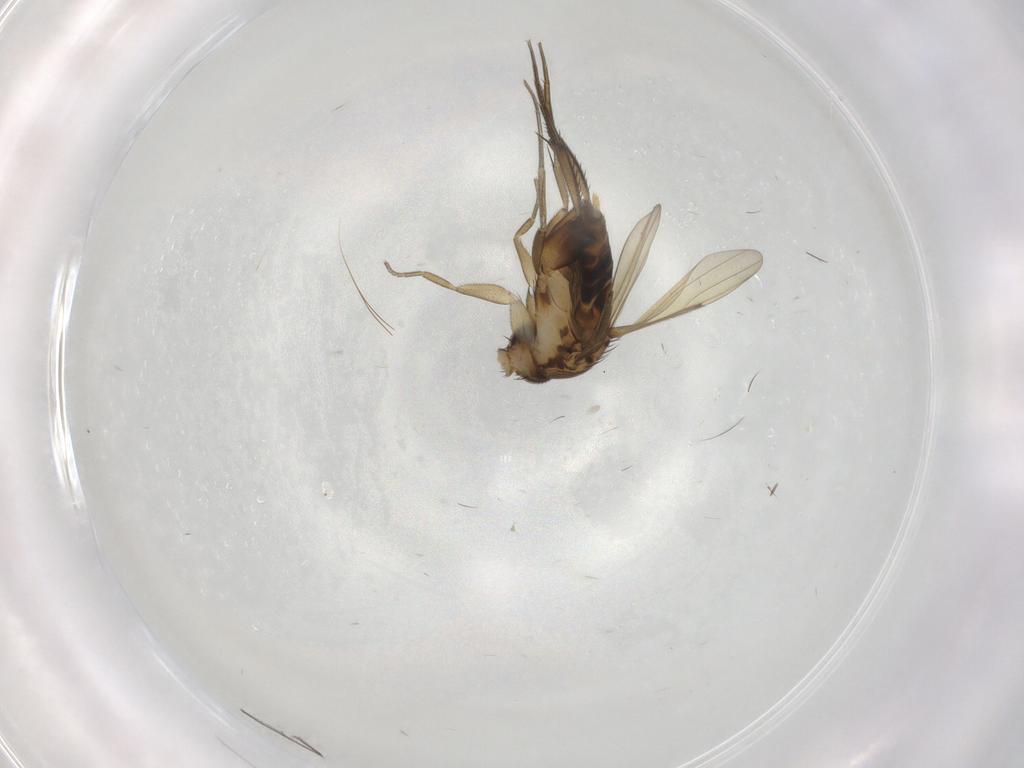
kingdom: Animalia
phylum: Arthropoda
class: Insecta
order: Diptera
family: Phoridae
